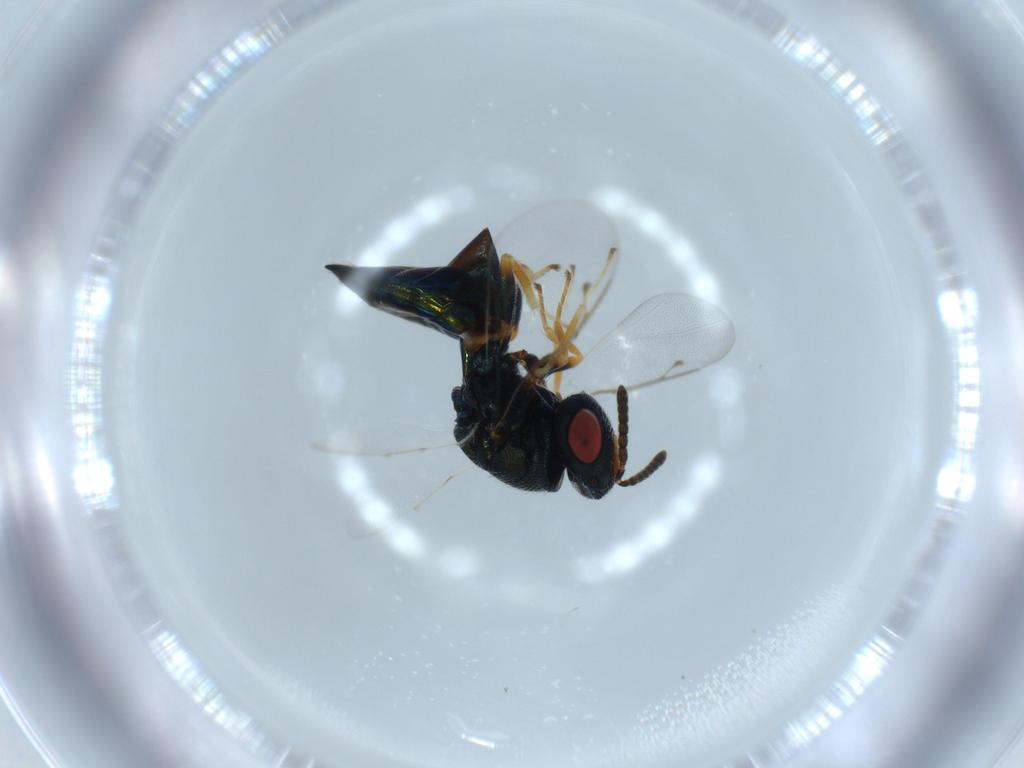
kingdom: Animalia
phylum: Arthropoda
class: Insecta
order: Hymenoptera
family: Pteromalidae
